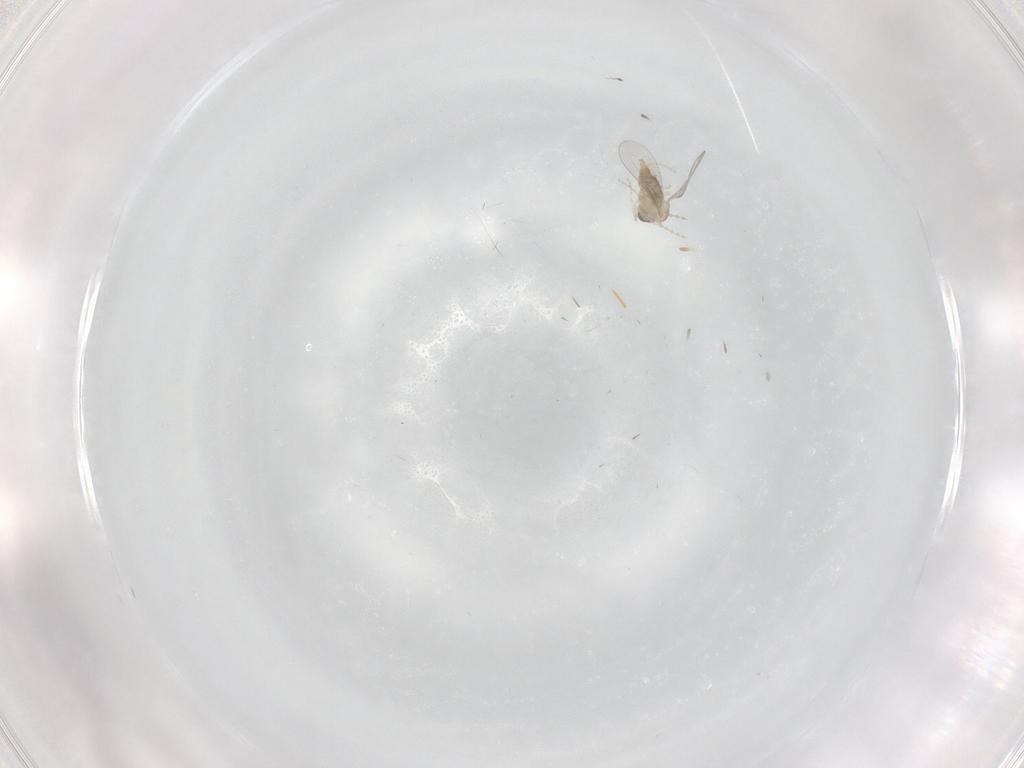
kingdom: Animalia
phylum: Arthropoda
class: Insecta
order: Diptera
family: Cecidomyiidae
